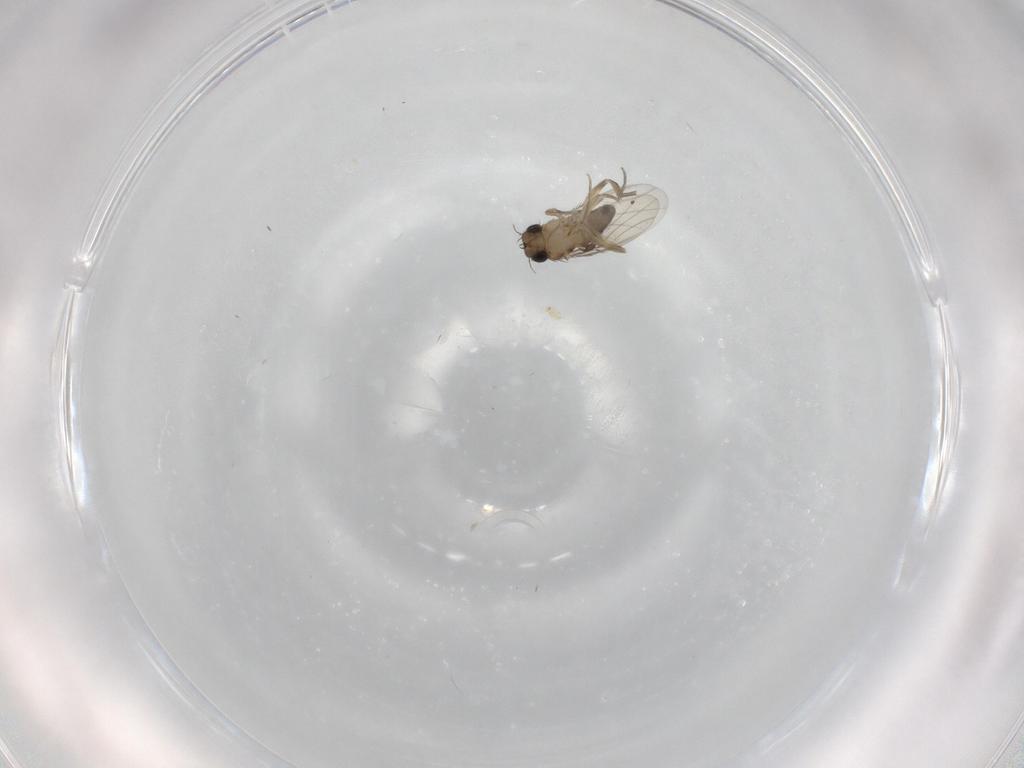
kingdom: Animalia
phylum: Arthropoda
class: Insecta
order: Diptera
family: Phoridae
